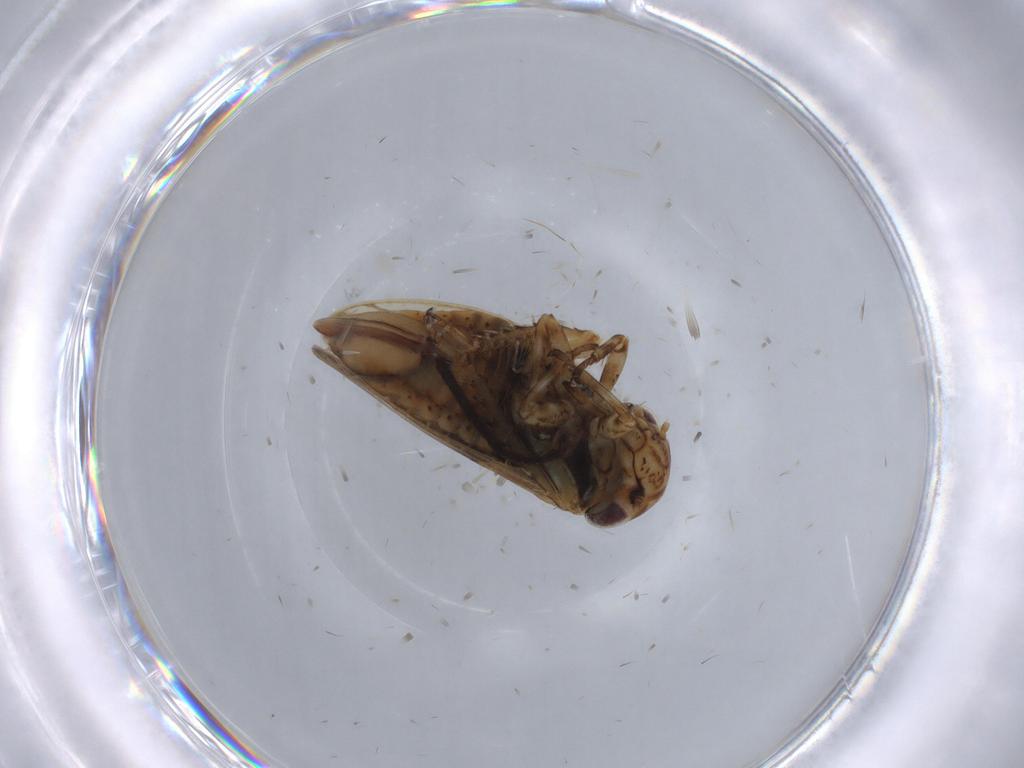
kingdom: Animalia
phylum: Arthropoda
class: Insecta
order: Hemiptera
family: Cicadellidae
